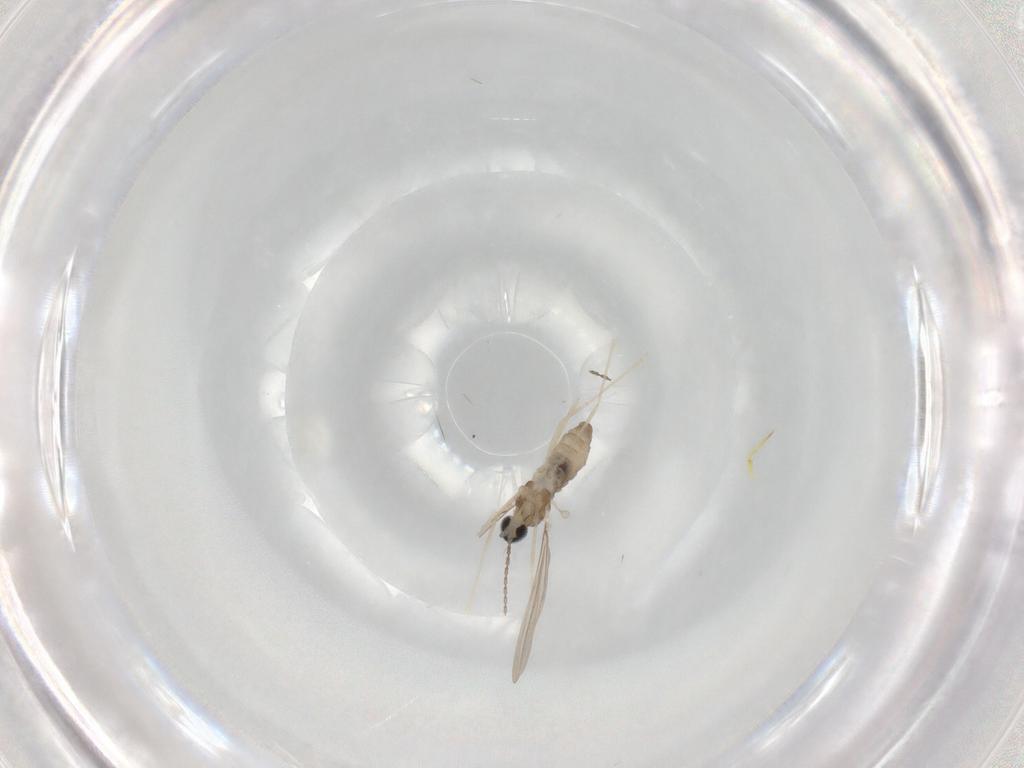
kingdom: Animalia
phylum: Arthropoda
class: Insecta
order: Diptera
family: Cecidomyiidae
